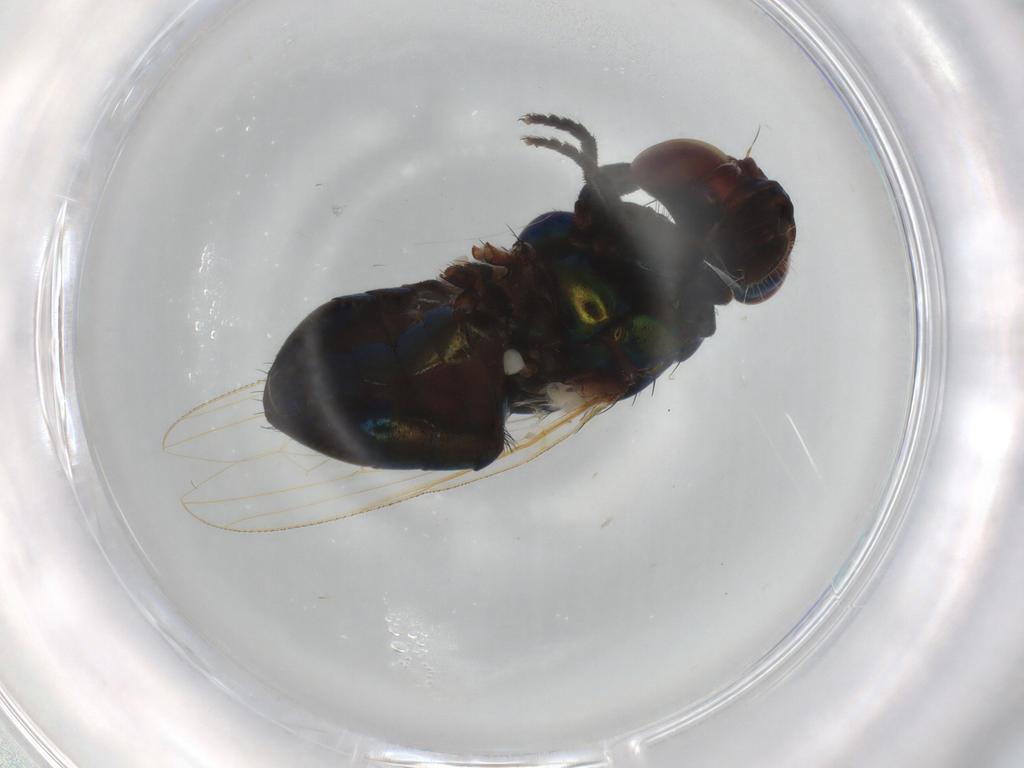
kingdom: Animalia
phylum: Arthropoda
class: Insecta
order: Diptera
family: Ulidiidae
